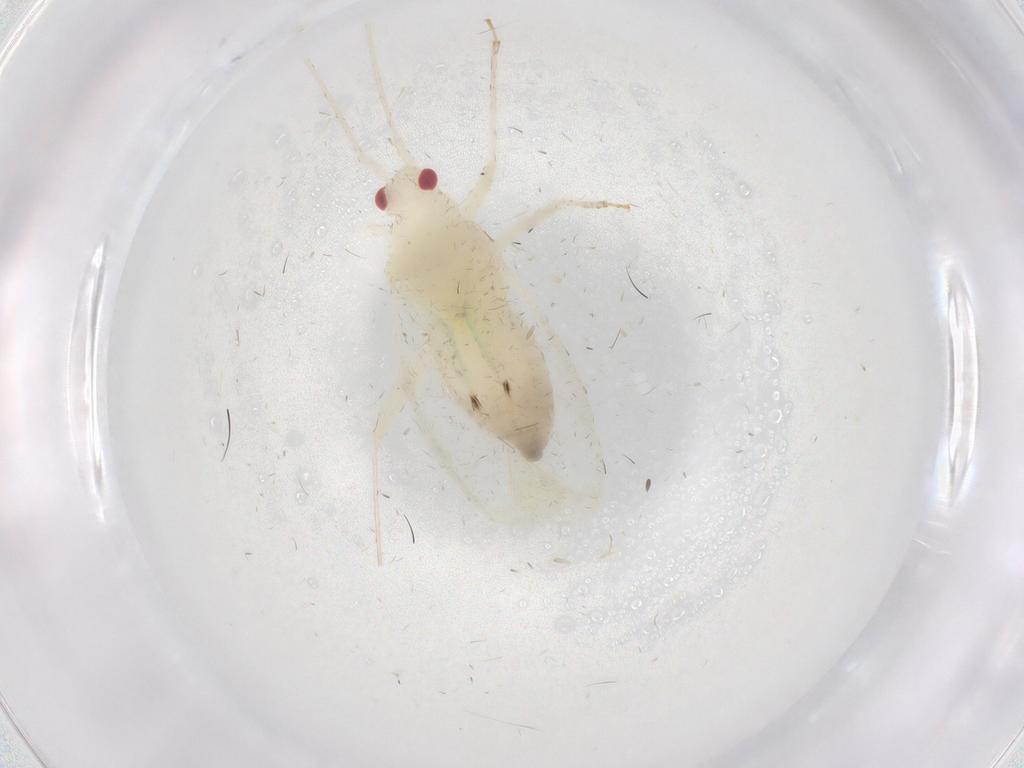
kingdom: Animalia
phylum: Arthropoda
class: Insecta
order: Hemiptera
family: Miridae
